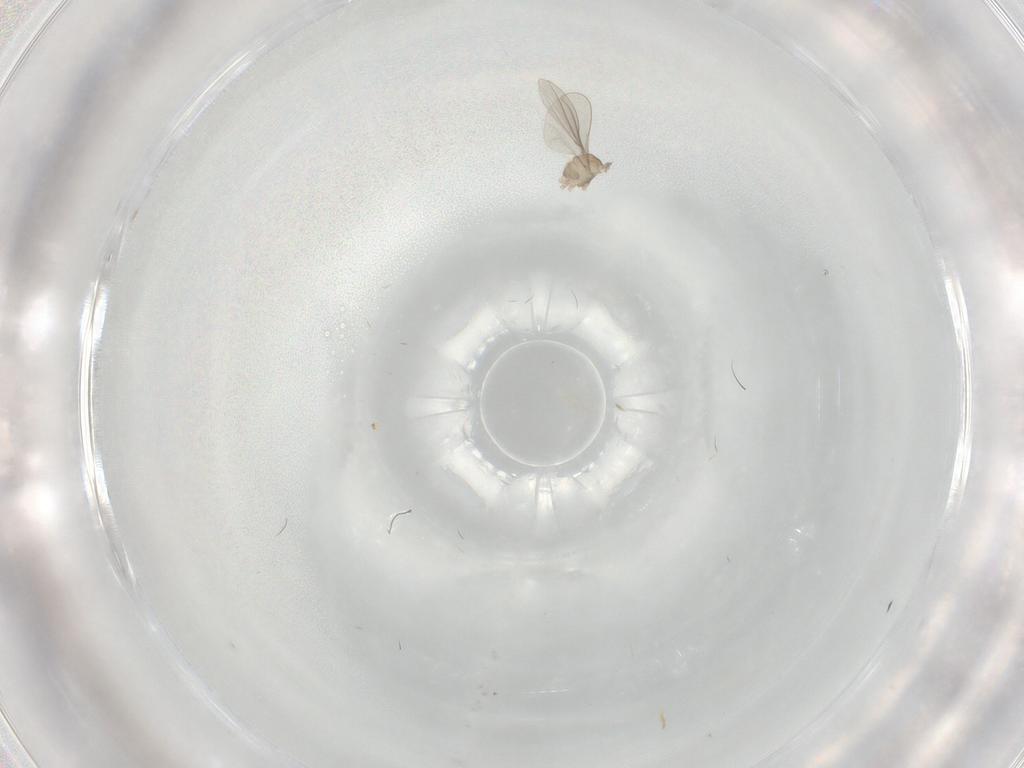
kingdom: Animalia
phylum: Arthropoda
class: Insecta
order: Diptera
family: Cecidomyiidae
